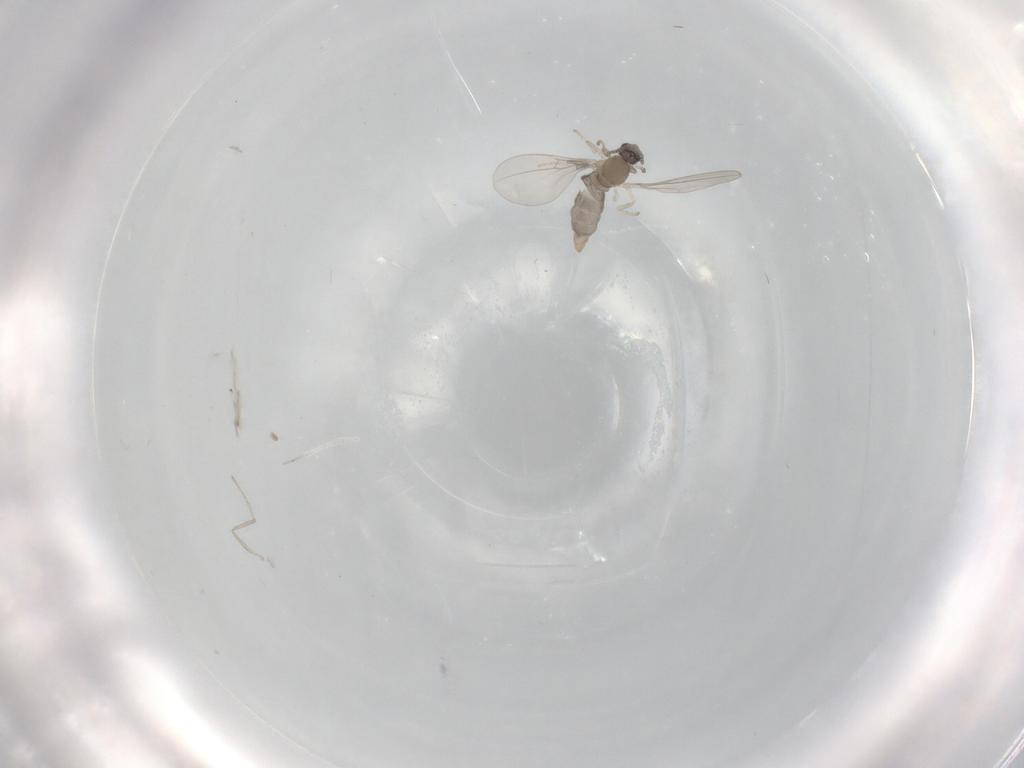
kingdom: Animalia
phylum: Arthropoda
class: Insecta
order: Diptera
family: Cecidomyiidae
